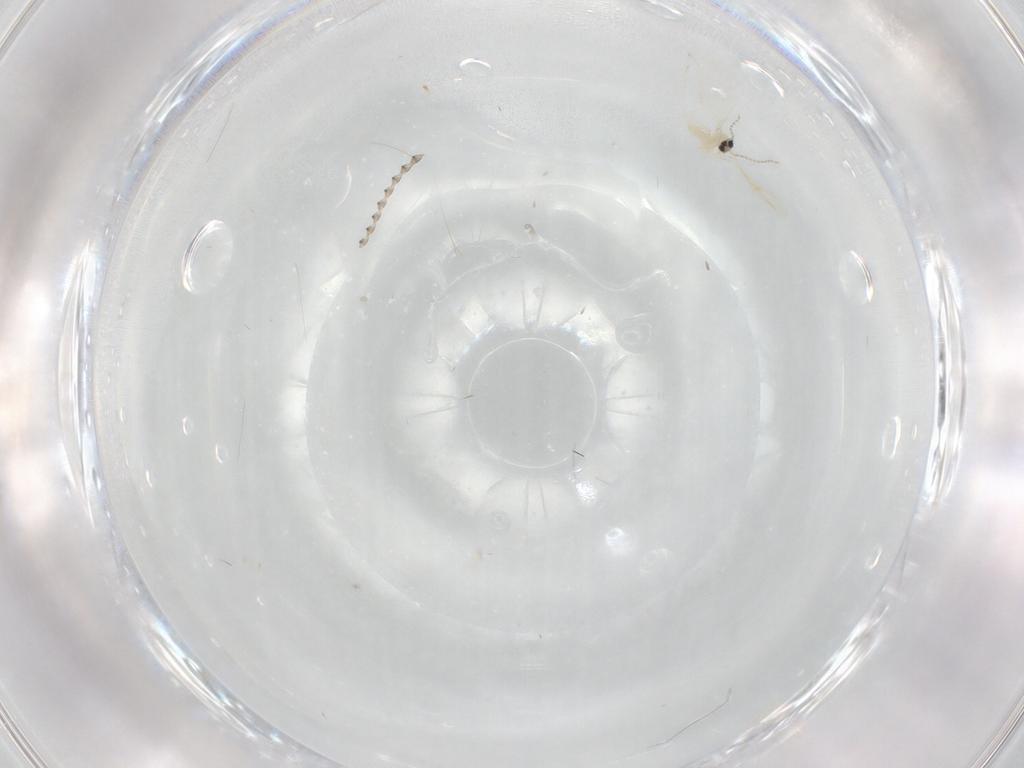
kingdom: Animalia
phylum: Arthropoda
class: Insecta
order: Diptera
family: Cecidomyiidae
